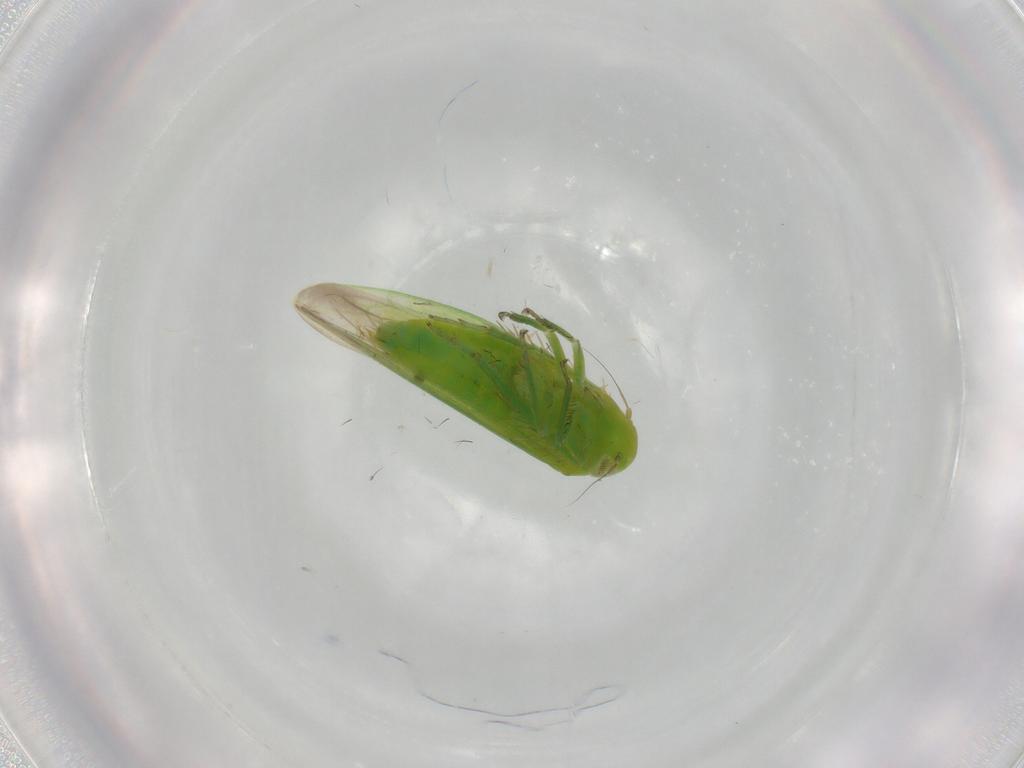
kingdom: Animalia
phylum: Arthropoda
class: Insecta
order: Hemiptera
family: Cicadellidae
